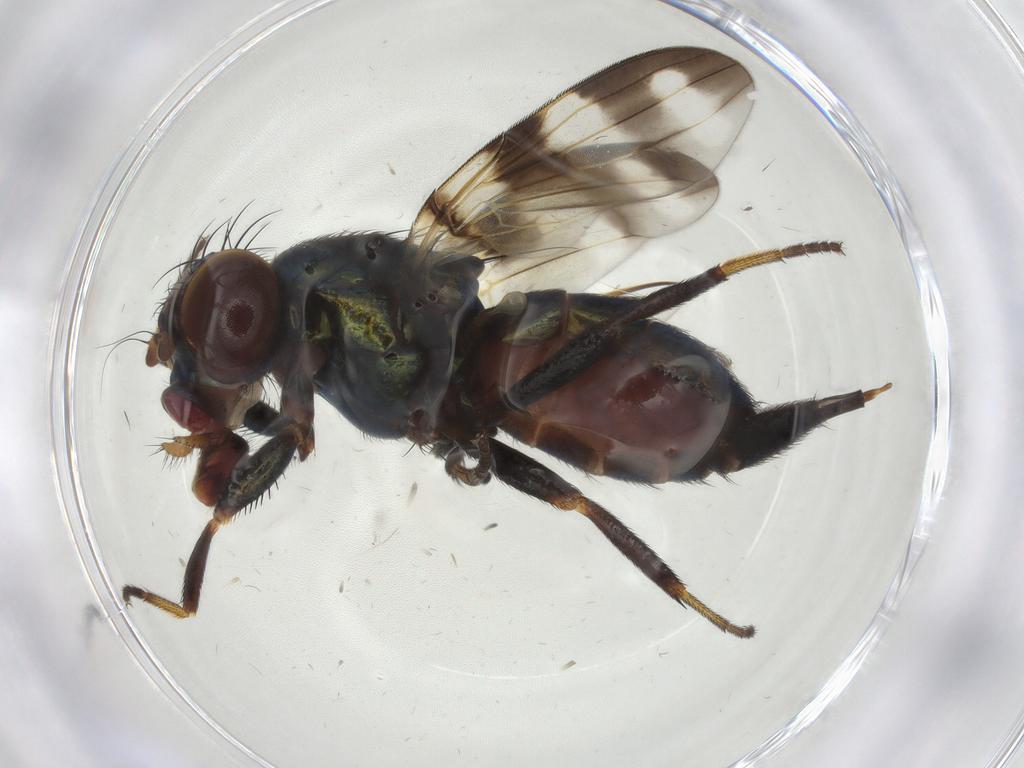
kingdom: Animalia
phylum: Arthropoda
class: Insecta
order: Diptera
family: Ulidiidae
